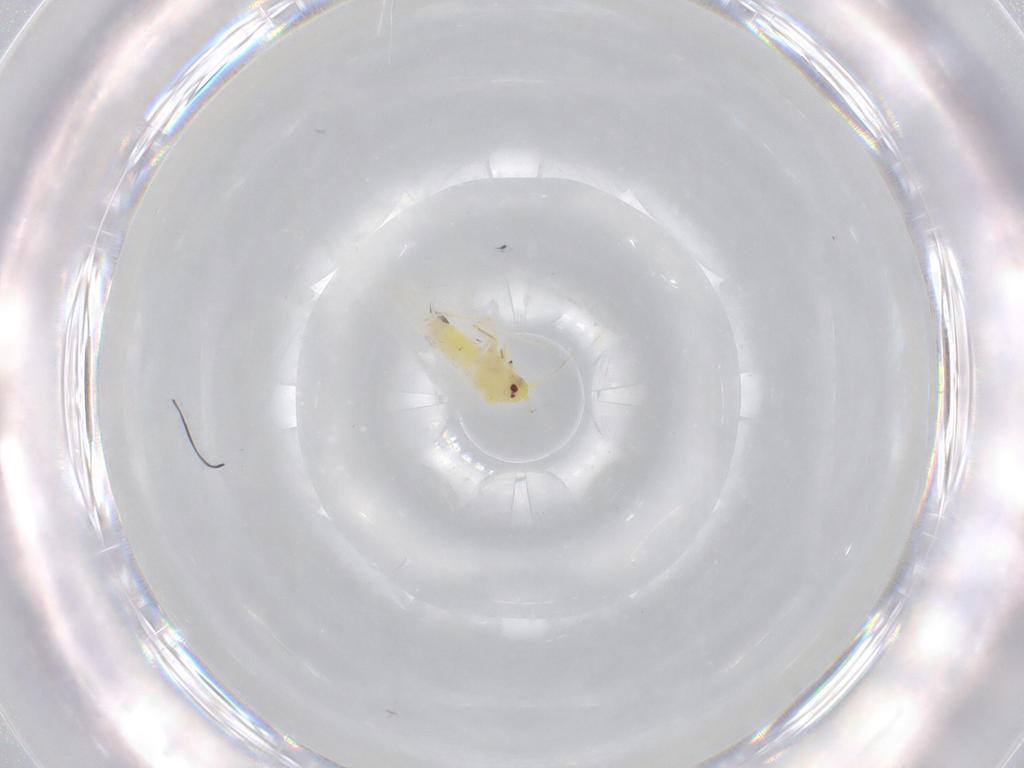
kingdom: Animalia
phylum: Arthropoda
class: Insecta
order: Hemiptera
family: Aleyrodidae
